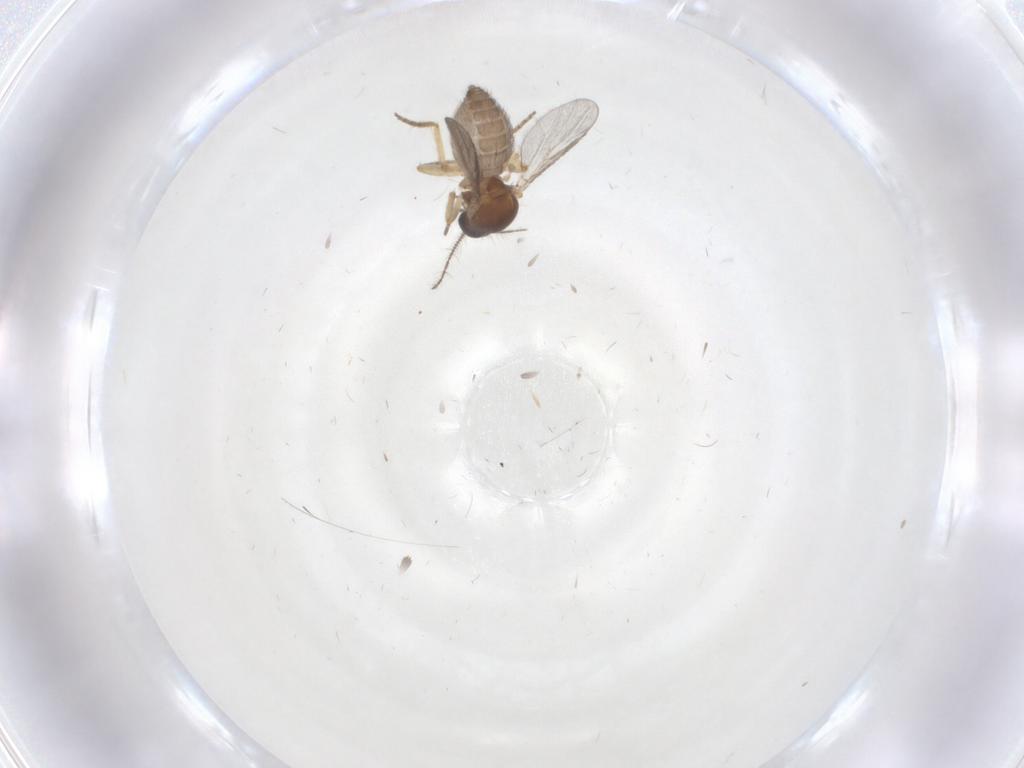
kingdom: Animalia
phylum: Arthropoda
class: Insecta
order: Diptera
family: Ceratopogonidae
